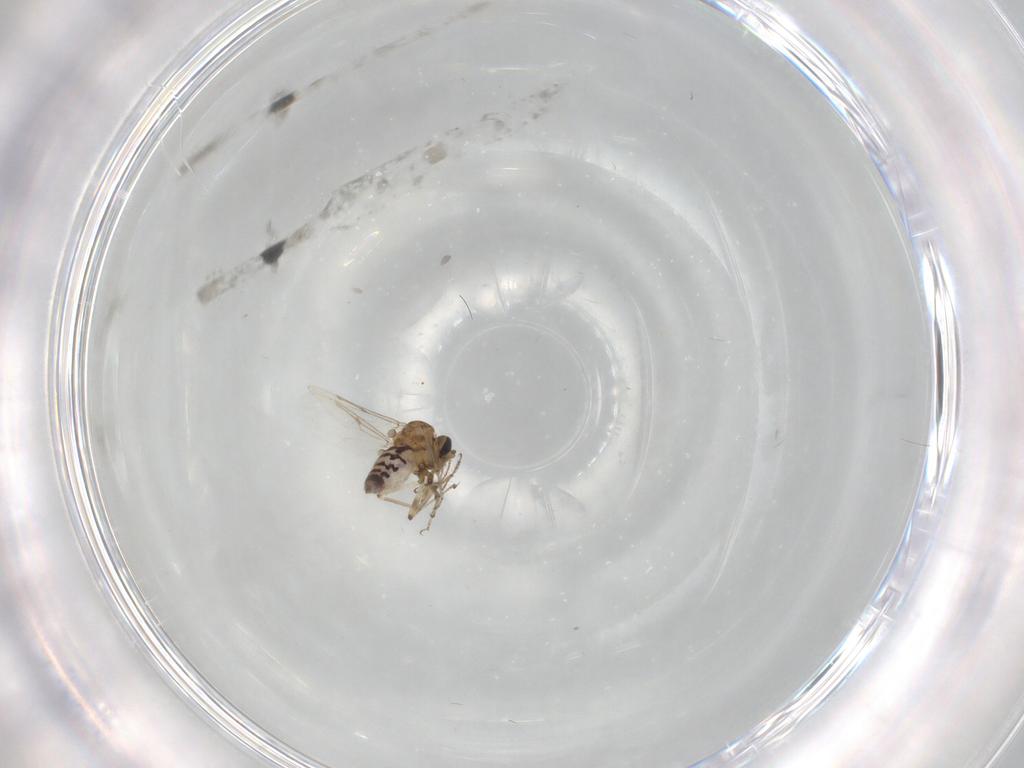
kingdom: Animalia
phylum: Arthropoda
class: Insecta
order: Diptera
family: Ceratopogonidae
